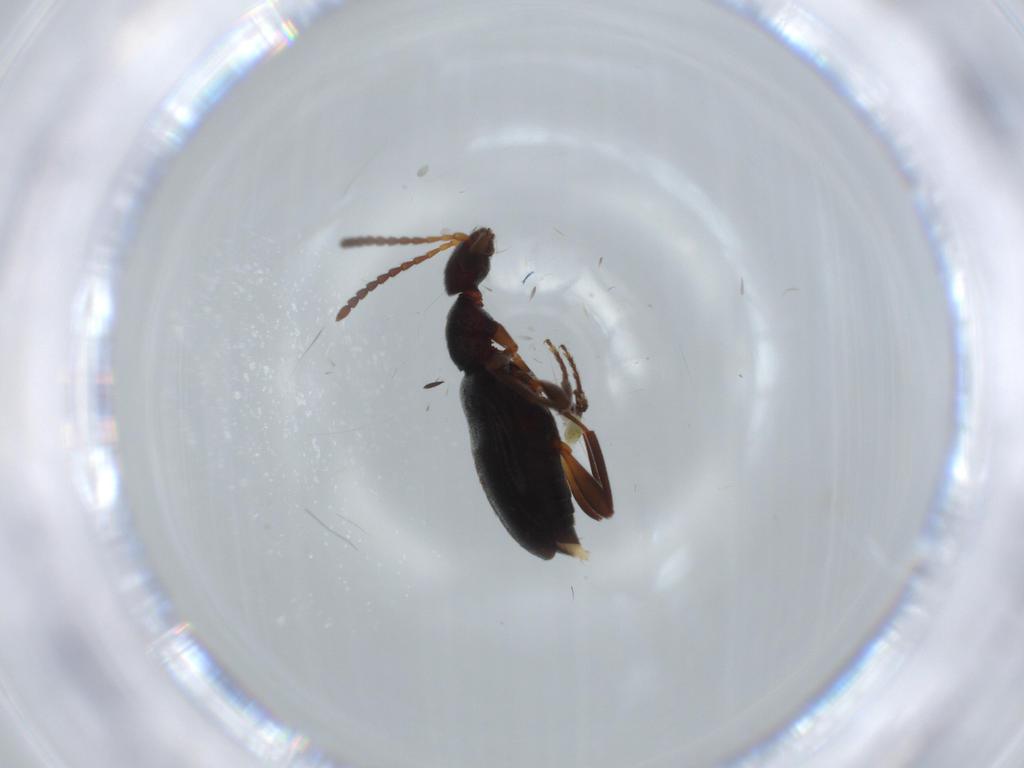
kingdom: Animalia
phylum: Arthropoda
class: Insecta
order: Coleoptera
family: Anthicidae
